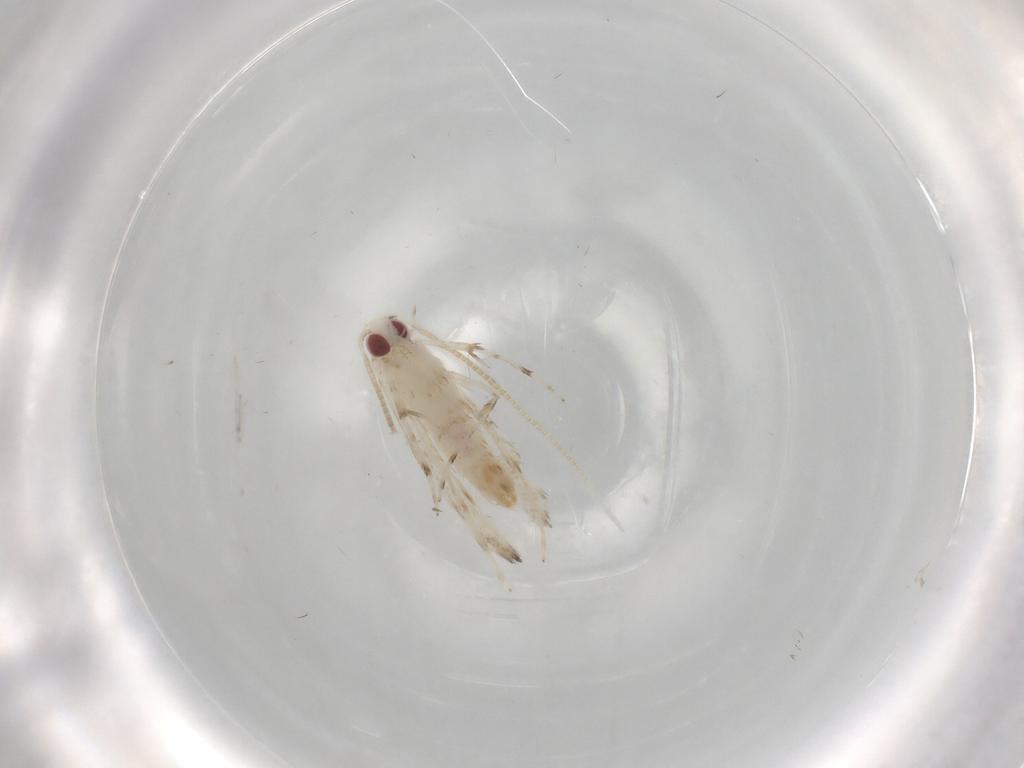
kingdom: Animalia
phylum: Arthropoda
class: Insecta
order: Lepidoptera
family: Gracillariidae
